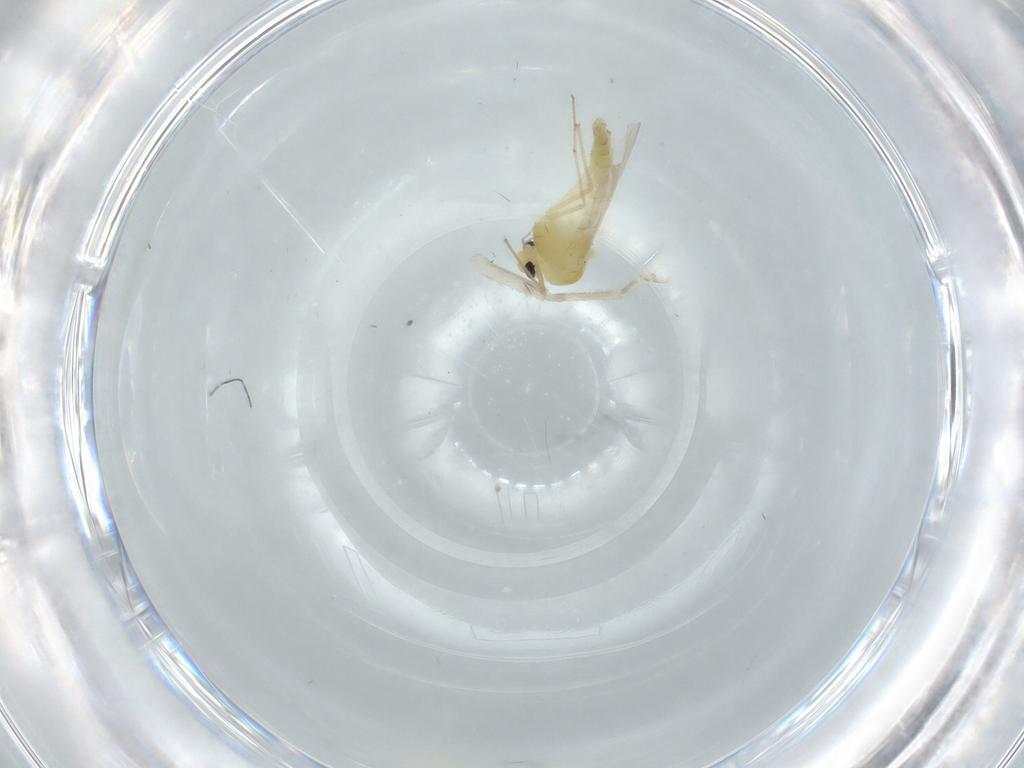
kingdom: Animalia
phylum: Arthropoda
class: Insecta
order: Diptera
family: Chironomidae
